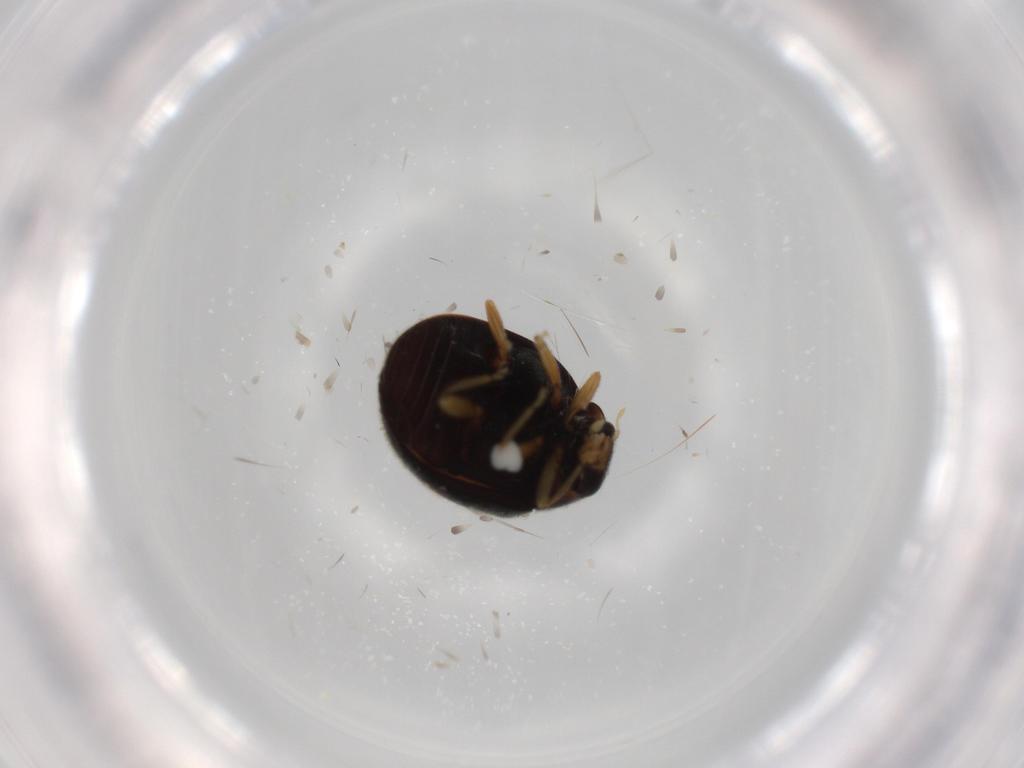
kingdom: Animalia
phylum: Arthropoda
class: Insecta
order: Coleoptera
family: Coccinellidae
